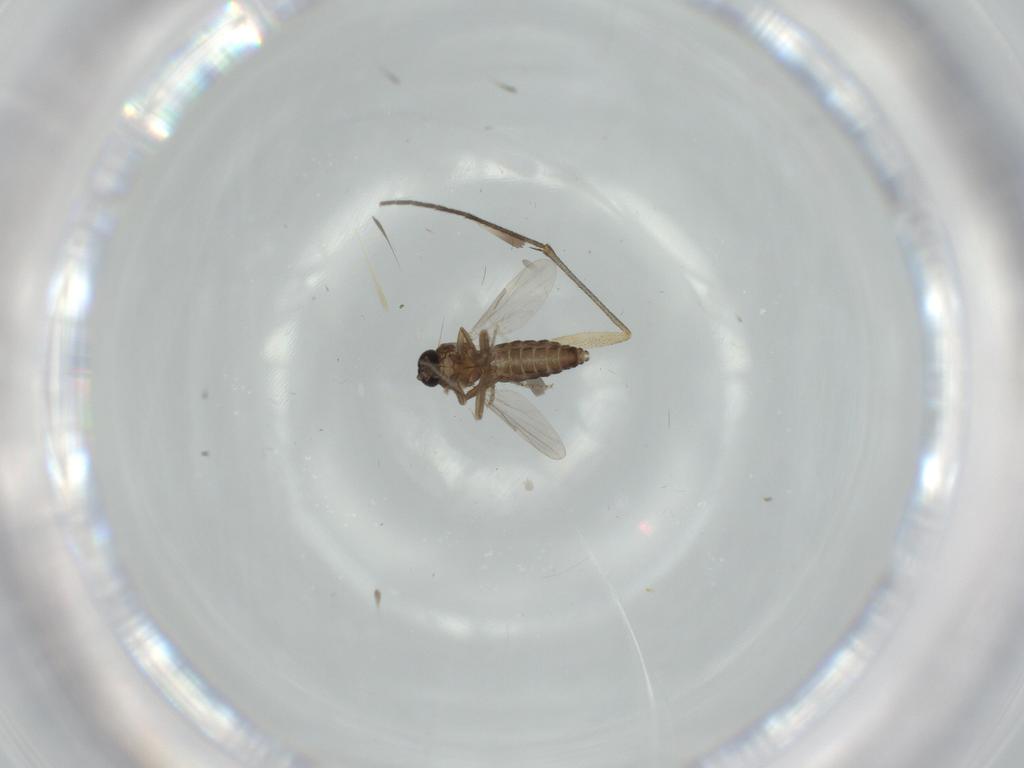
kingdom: Animalia
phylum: Arthropoda
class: Insecta
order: Diptera
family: Ceratopogonidae
